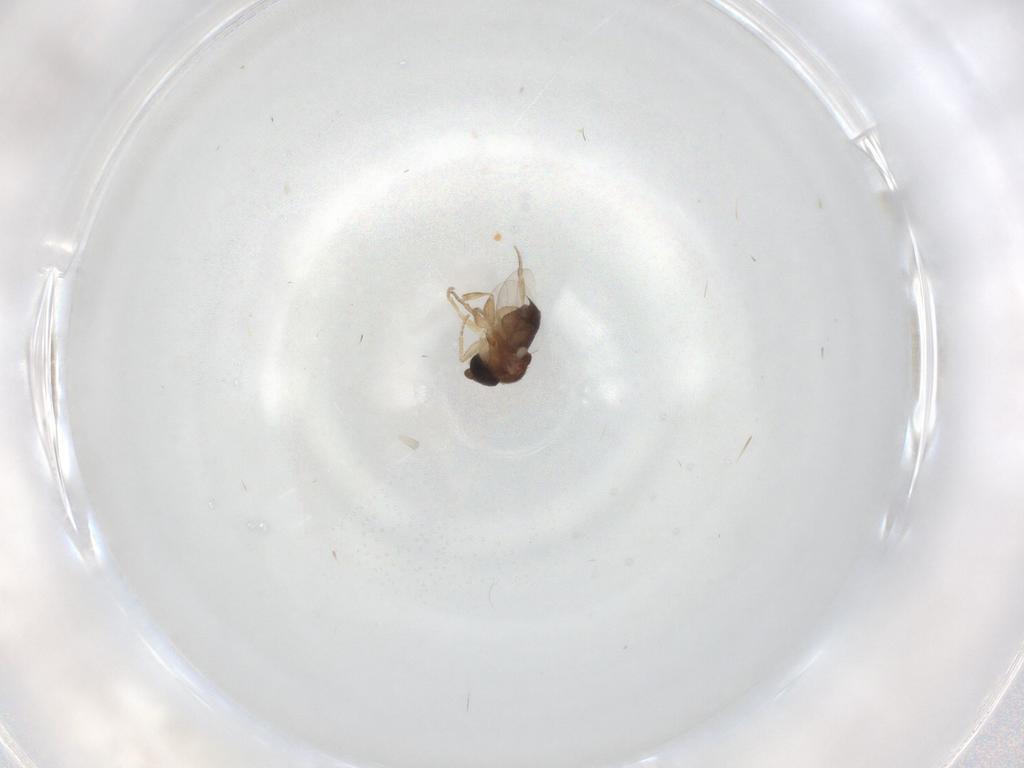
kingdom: Animalia
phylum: Arthropoda
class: Insecta
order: Diptera
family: Phoridae
